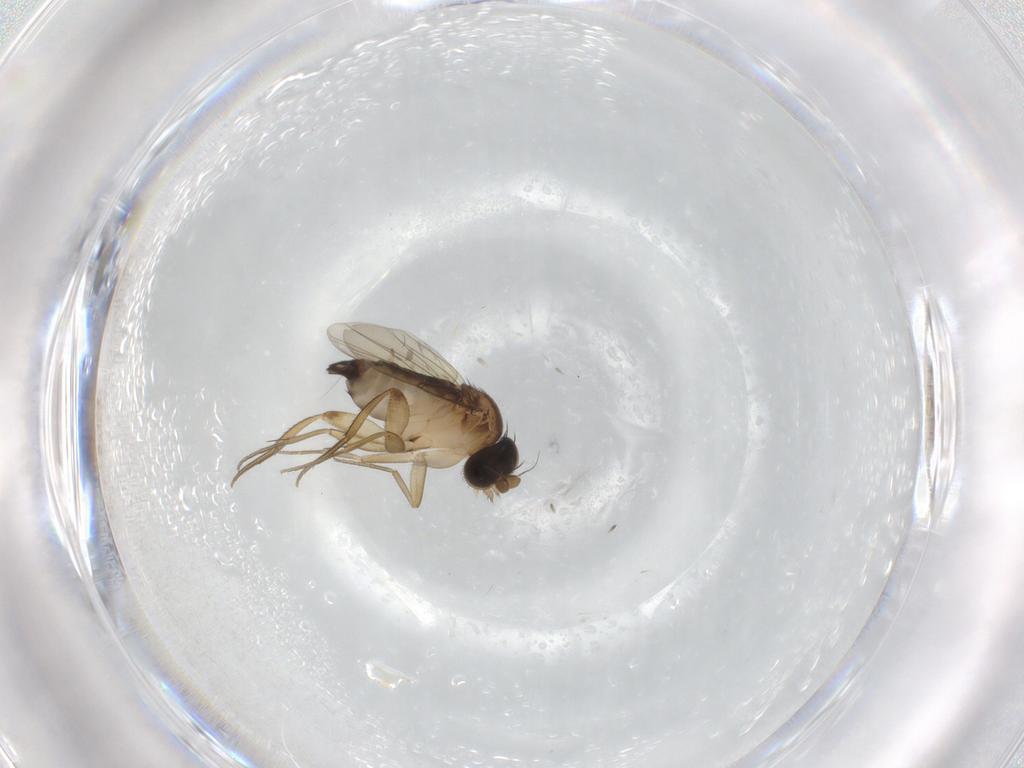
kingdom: Animalia
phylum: Arthropoda
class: Insecta
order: Diptera
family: Phoridae
